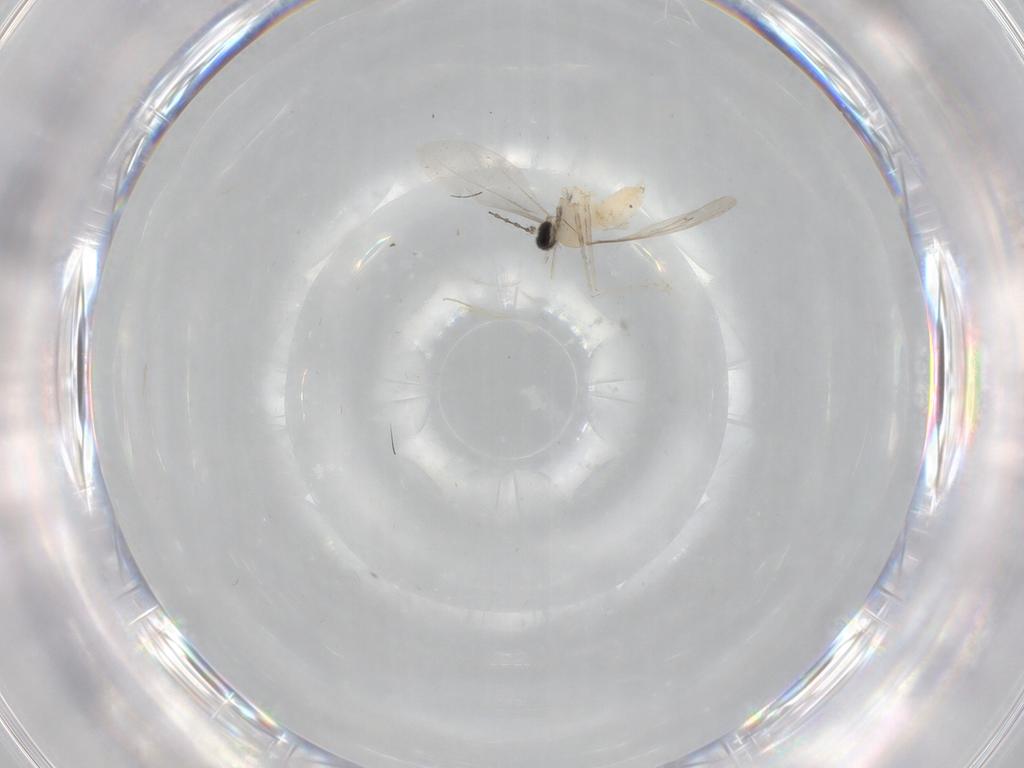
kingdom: Animalia
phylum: Arthropoda
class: Insecta
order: Diptera
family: Cecidomyiidae
